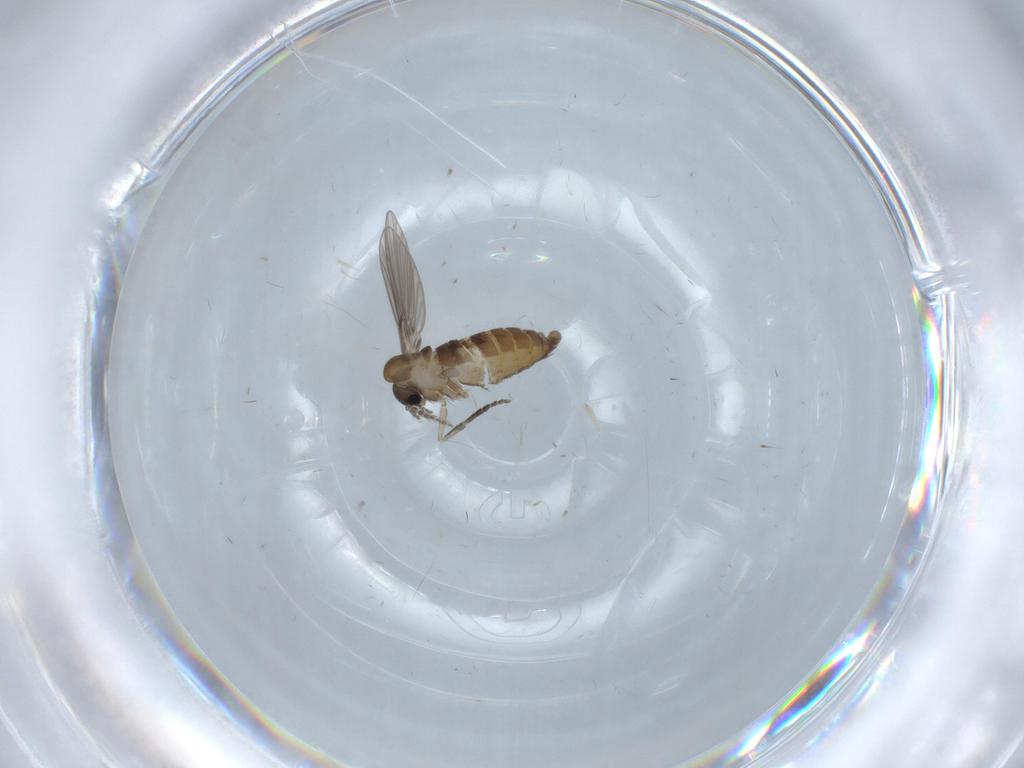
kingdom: Animalia
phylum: Arthropoda
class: Insecta
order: Diptera
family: Psychodidae
